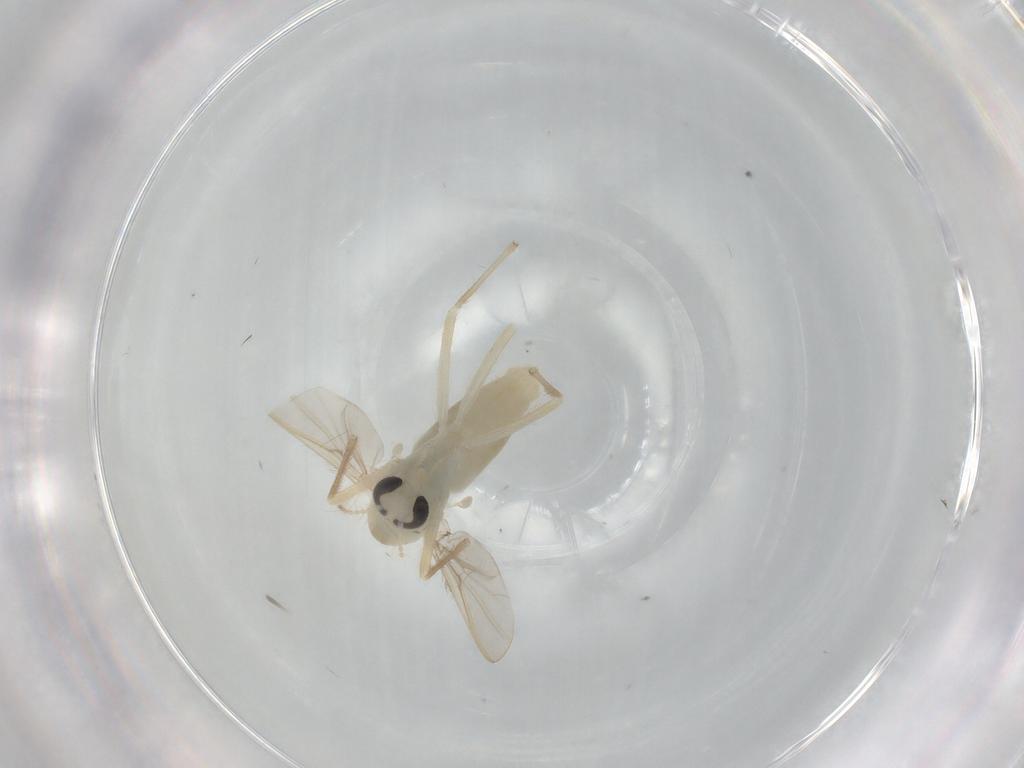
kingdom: Animalia
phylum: Arthropoda
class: Insecta
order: Diptera
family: Chironomidae
